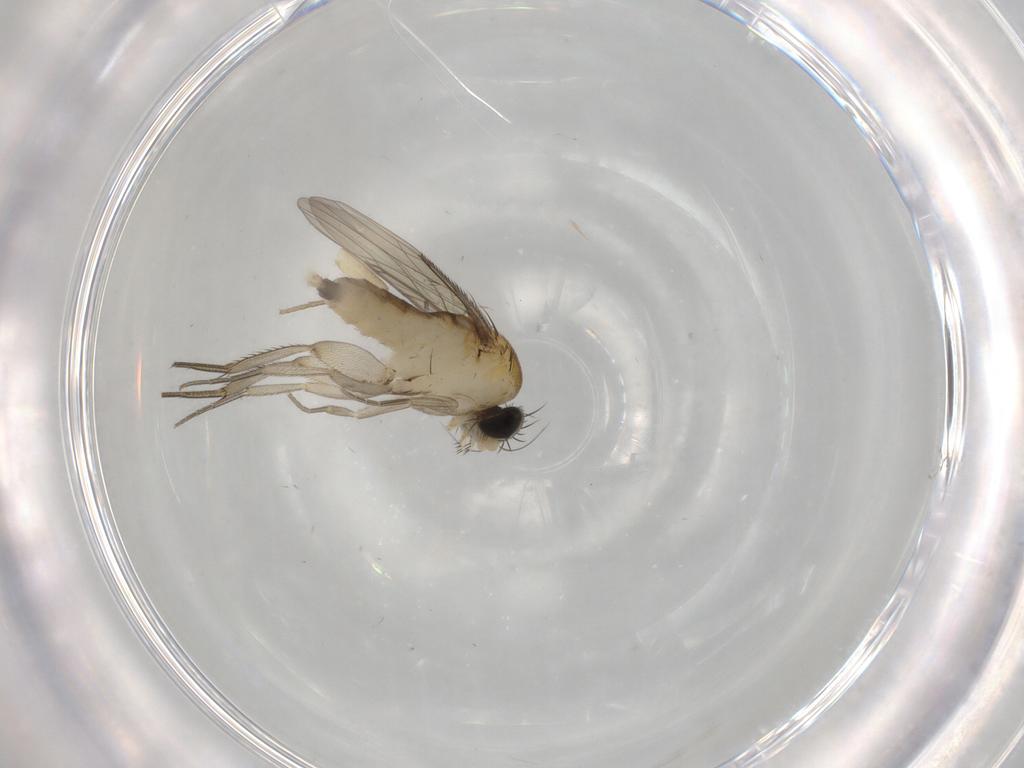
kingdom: Animalia
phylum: Arthropoda
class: Insecta
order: Diptera
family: Phoridae
